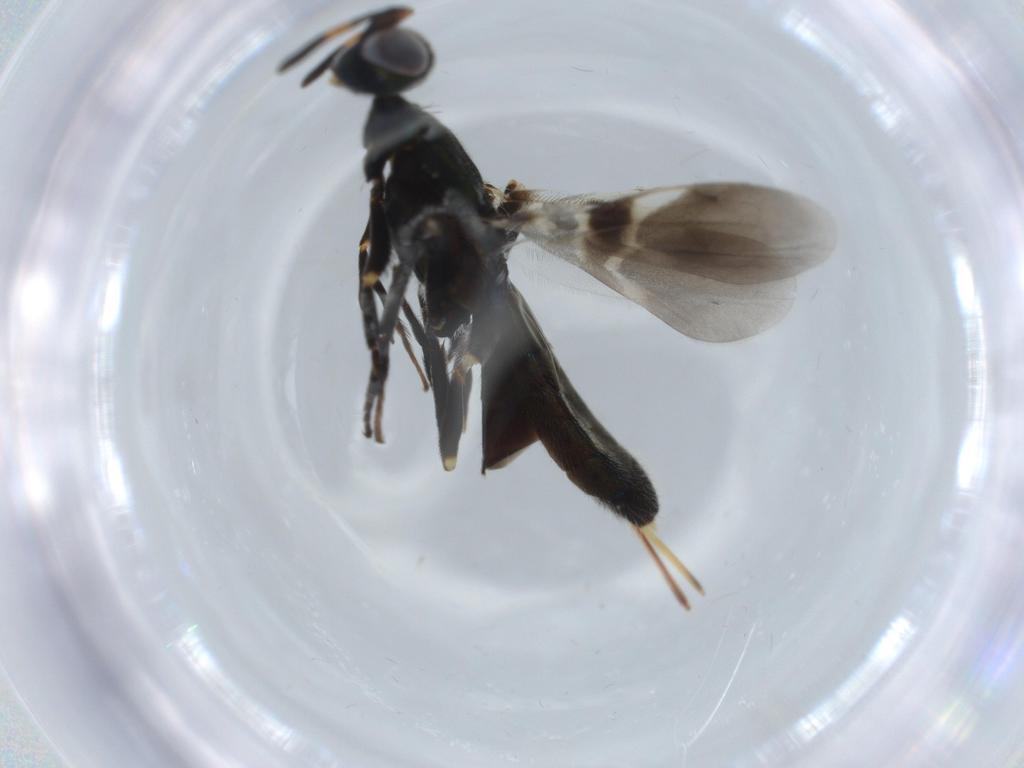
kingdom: Animalia
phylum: Arthropoda
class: Insecta
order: Hymenoptera
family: Eupelmidae
